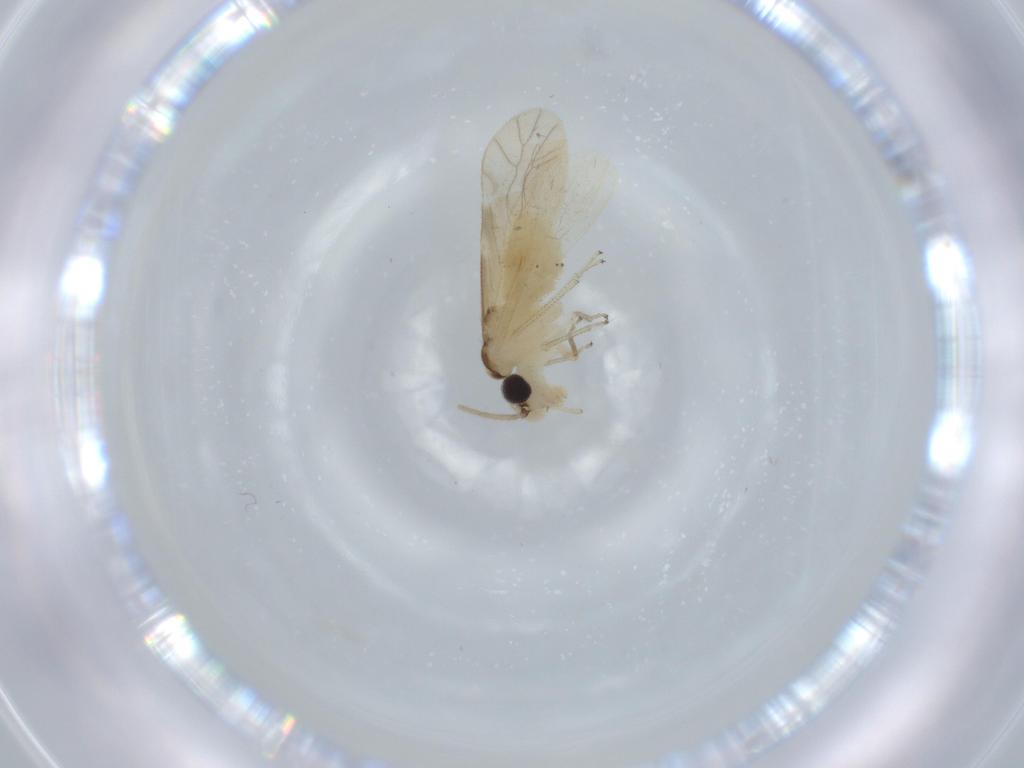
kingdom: Animalia
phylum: Arthropoda
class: Insecta
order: Psocodea
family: Caeciliusidae
